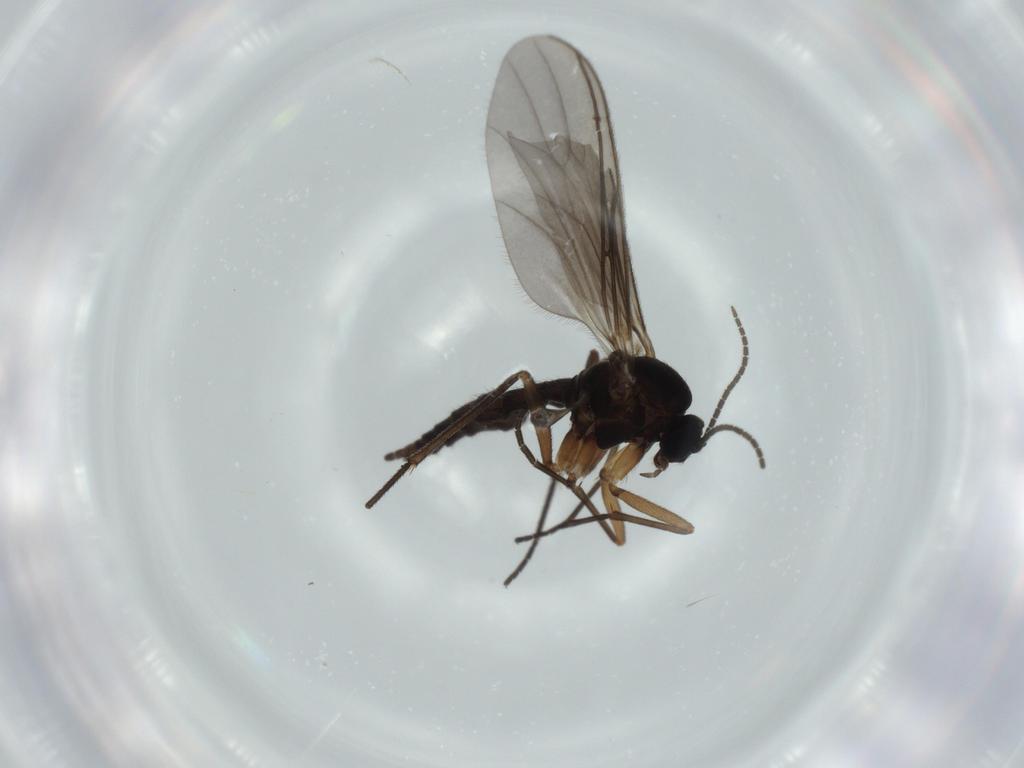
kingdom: Animalia
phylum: Arthropoda
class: Insecta
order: Diptera
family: Sciaridae
